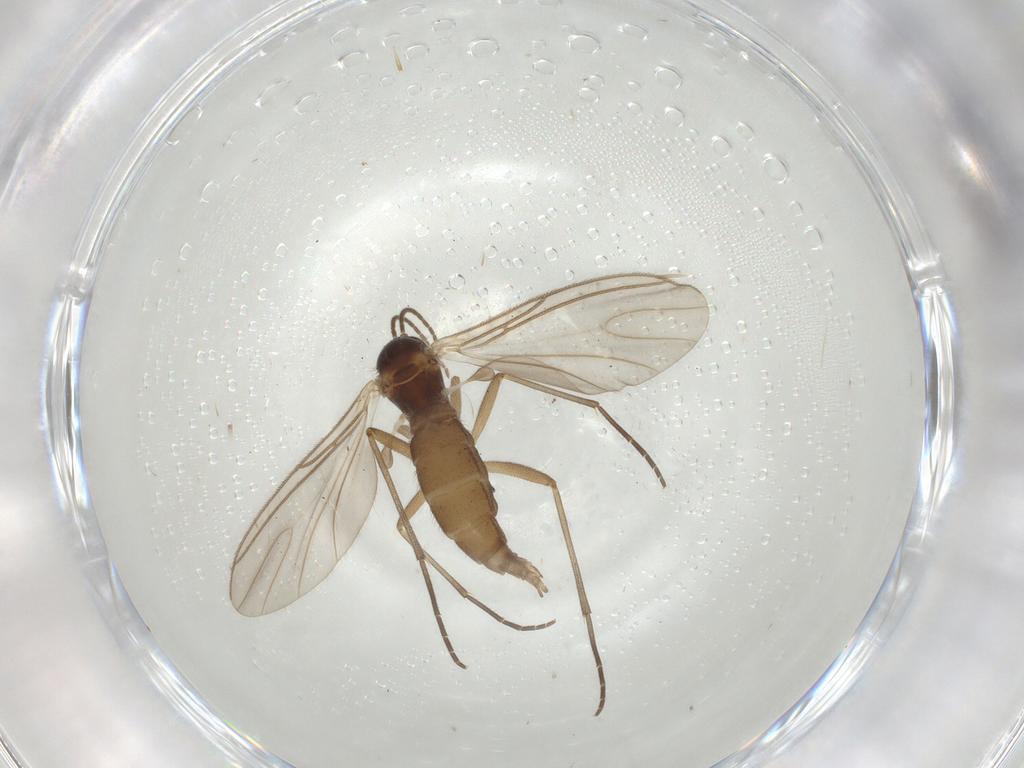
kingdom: Animalia
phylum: Arthropoda
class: Insecta
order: Diptera
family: Sciaridae
